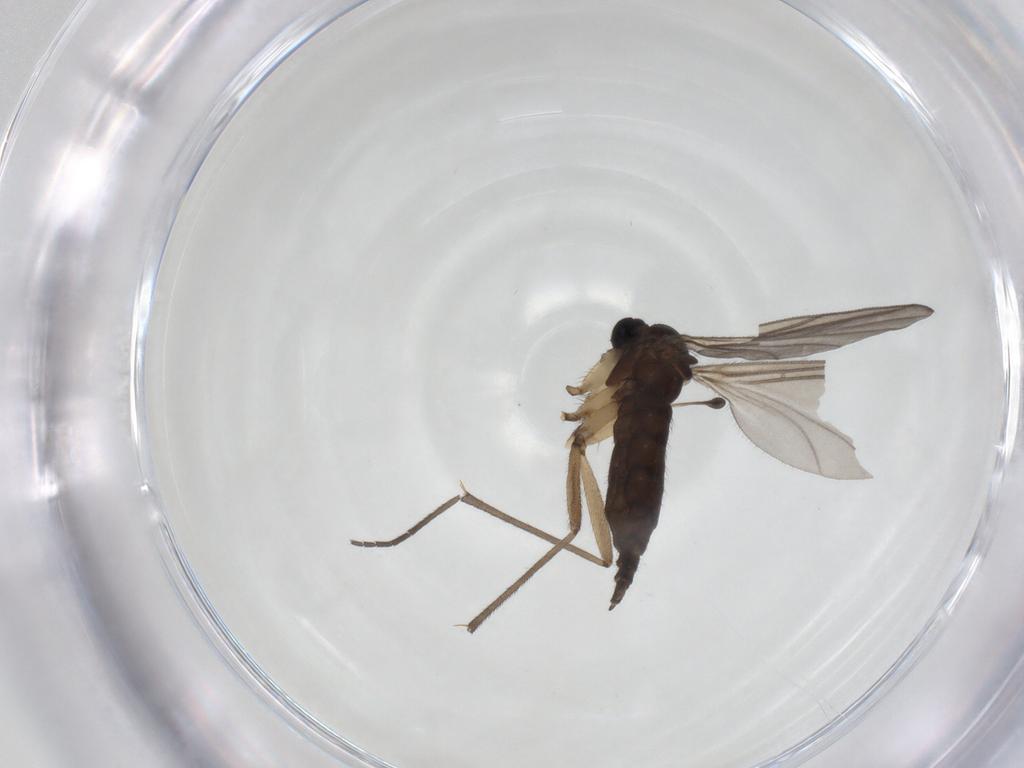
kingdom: Animalia
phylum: Arthropoda
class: Insecta
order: Diptera
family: Sciaridae
